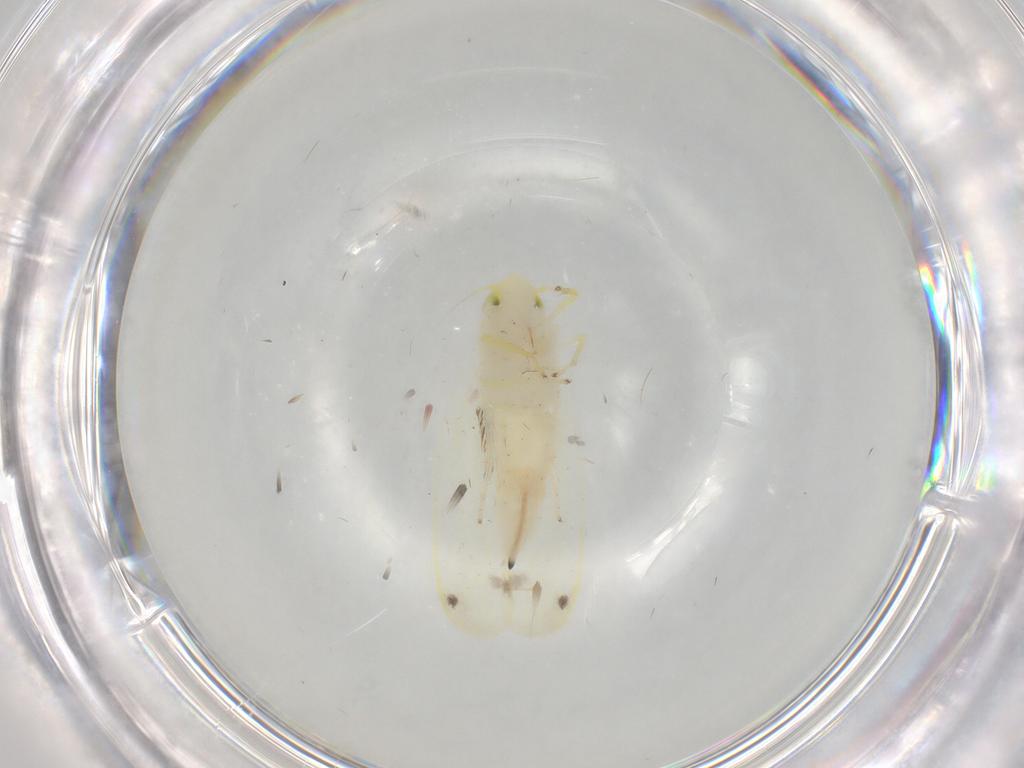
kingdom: Animalia
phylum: Arthropoda
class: Insecta
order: Hemiptera
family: Cicadellidae
